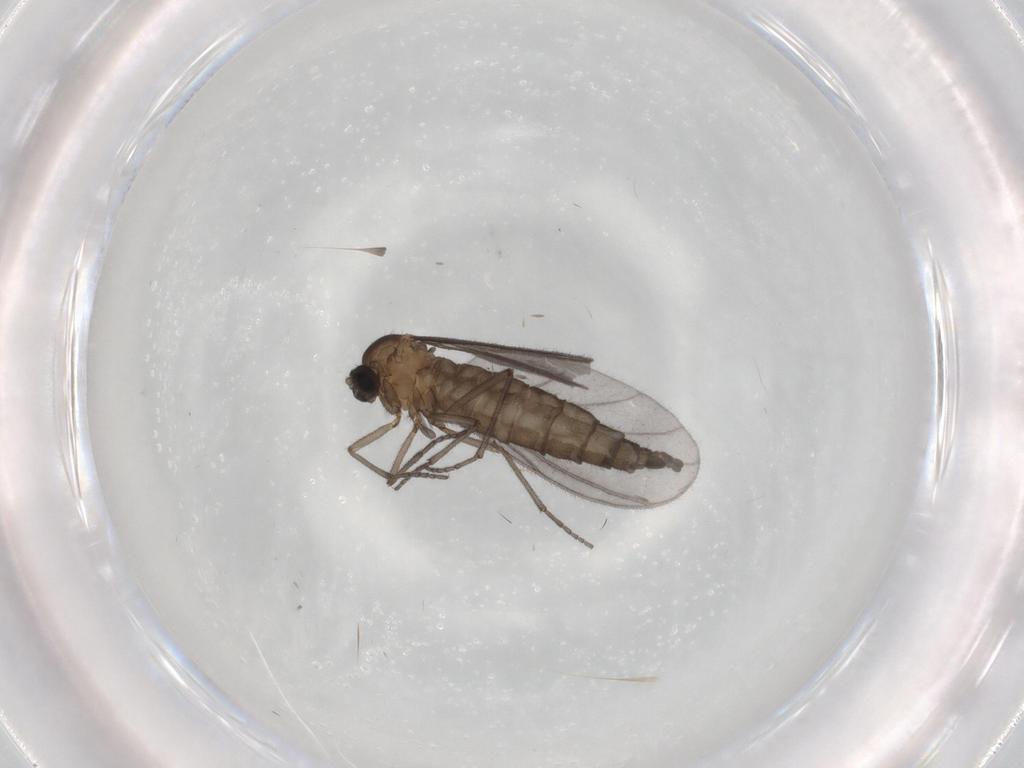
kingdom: Animalia
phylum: Arthropoda
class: Insecta
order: Diptera
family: Sciaridae
